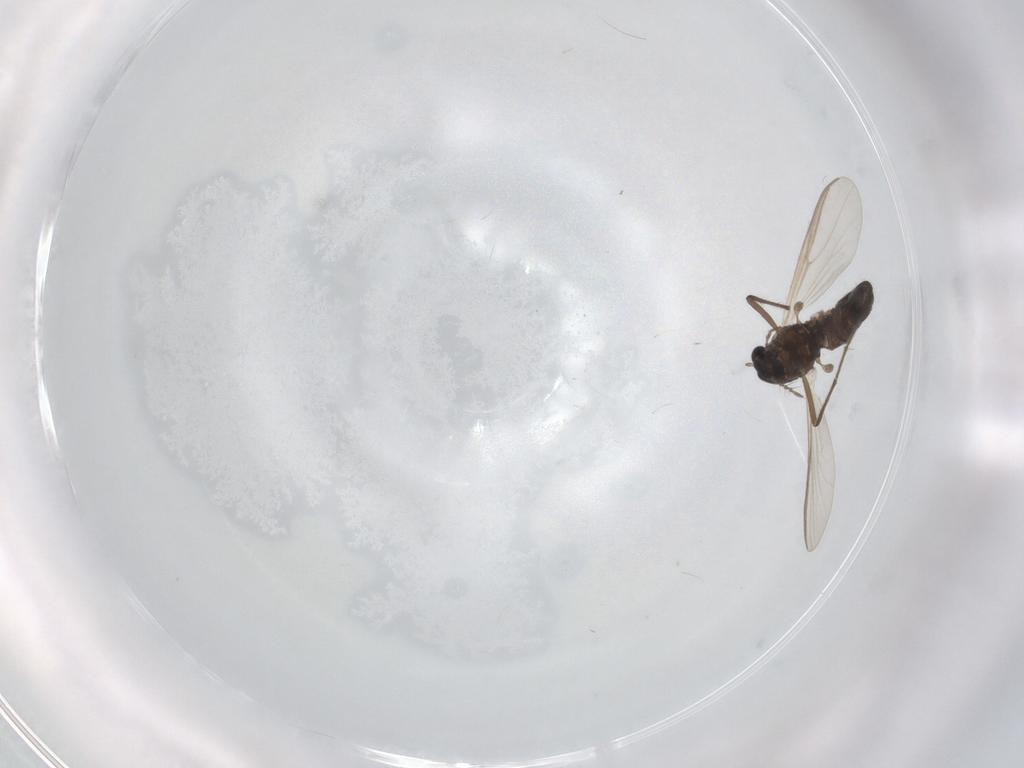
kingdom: Animalia
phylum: Arthropoda
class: Insecta
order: Diptera
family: Chironomidae
